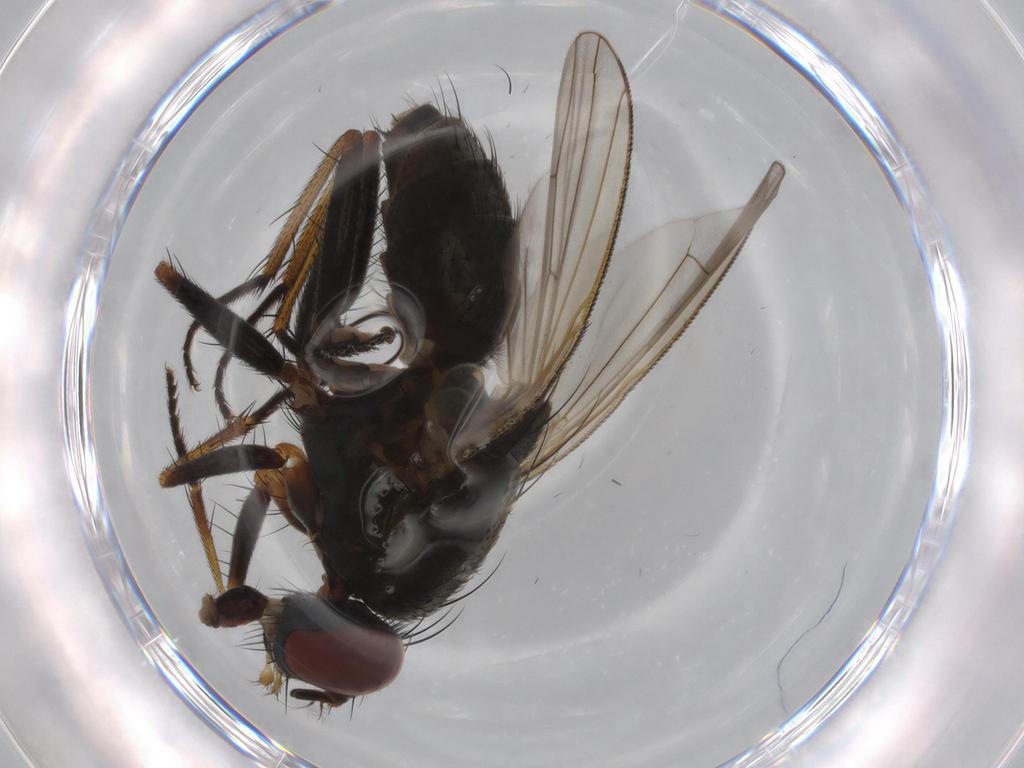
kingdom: Animalia
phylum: Arthropoda
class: Insecta
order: Diptera
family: Muscidae
